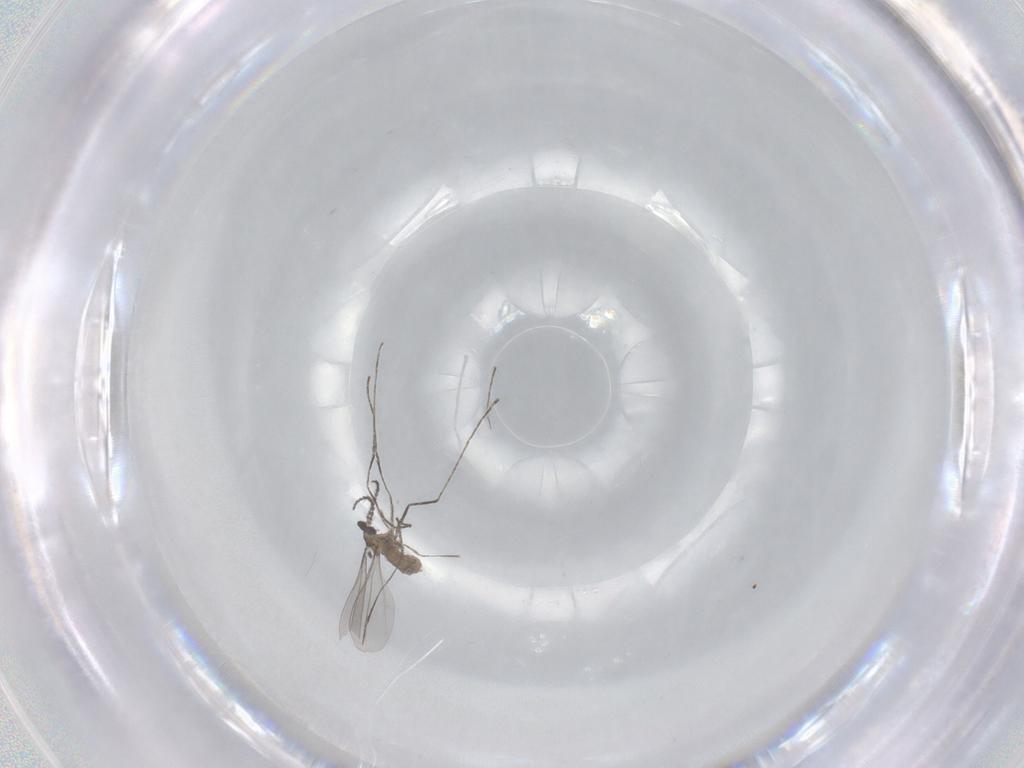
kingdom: Animalia
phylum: Arthropoda
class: Insecta
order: Diptera
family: Cecidomyiidae
